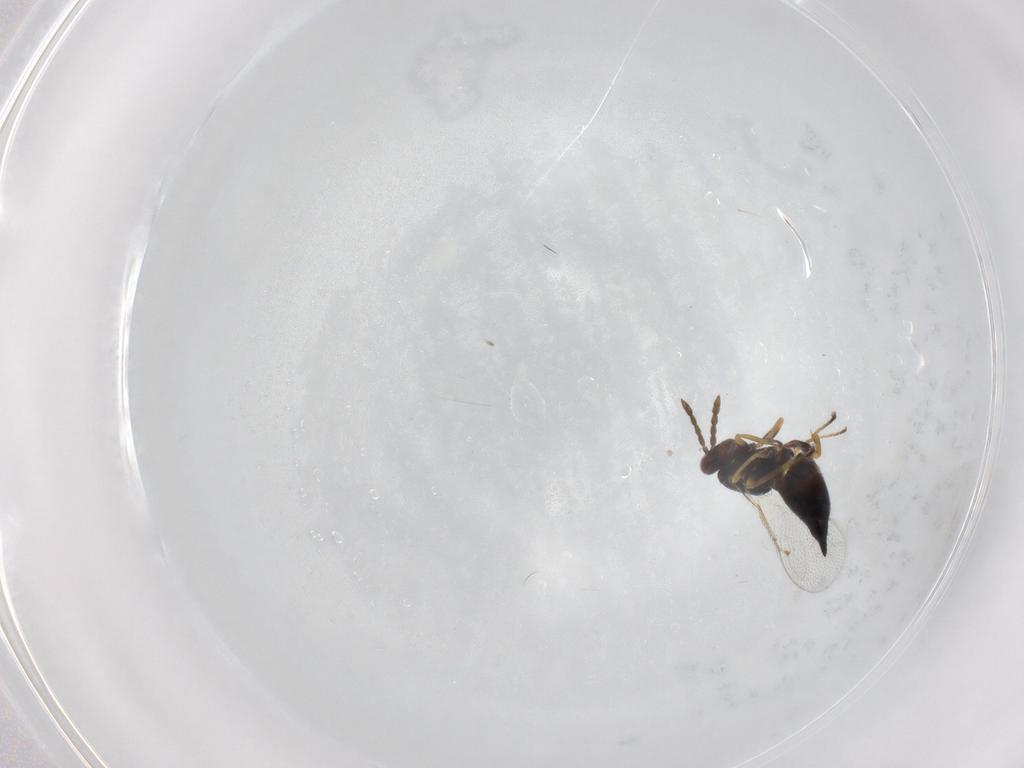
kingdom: Animalia
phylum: Arthropoda
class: Insecta
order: Hymenoptera
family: Eulophidae
